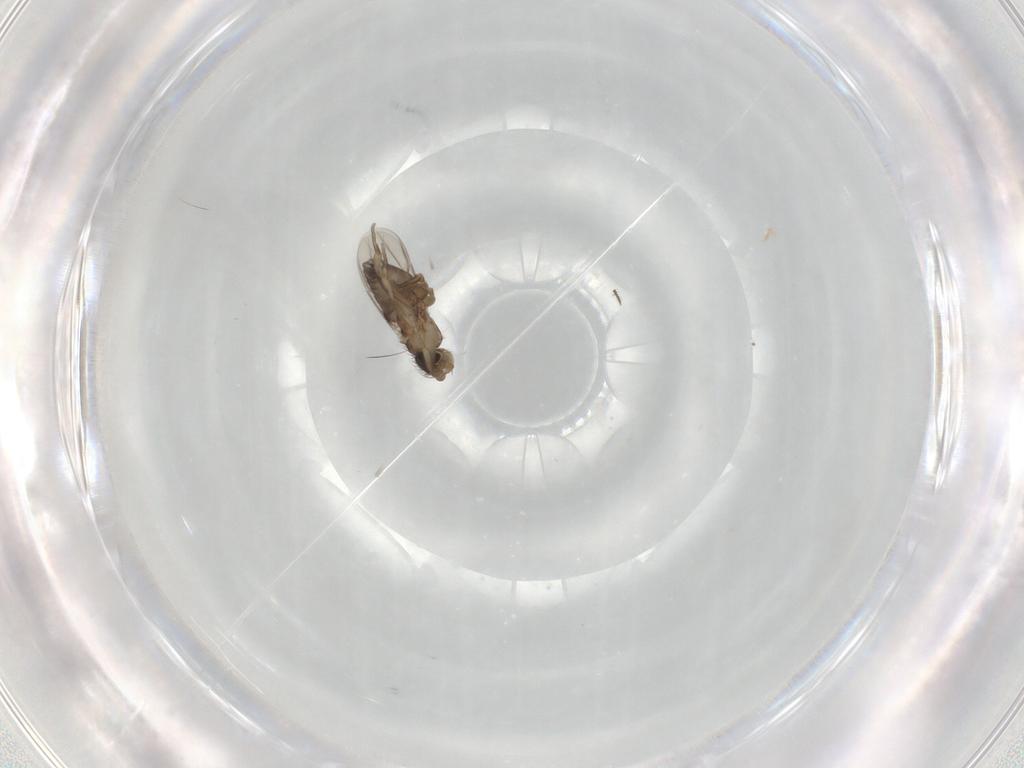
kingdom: Animalia
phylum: Arthropoda
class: Insecta
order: Diptera
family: Phoridae
